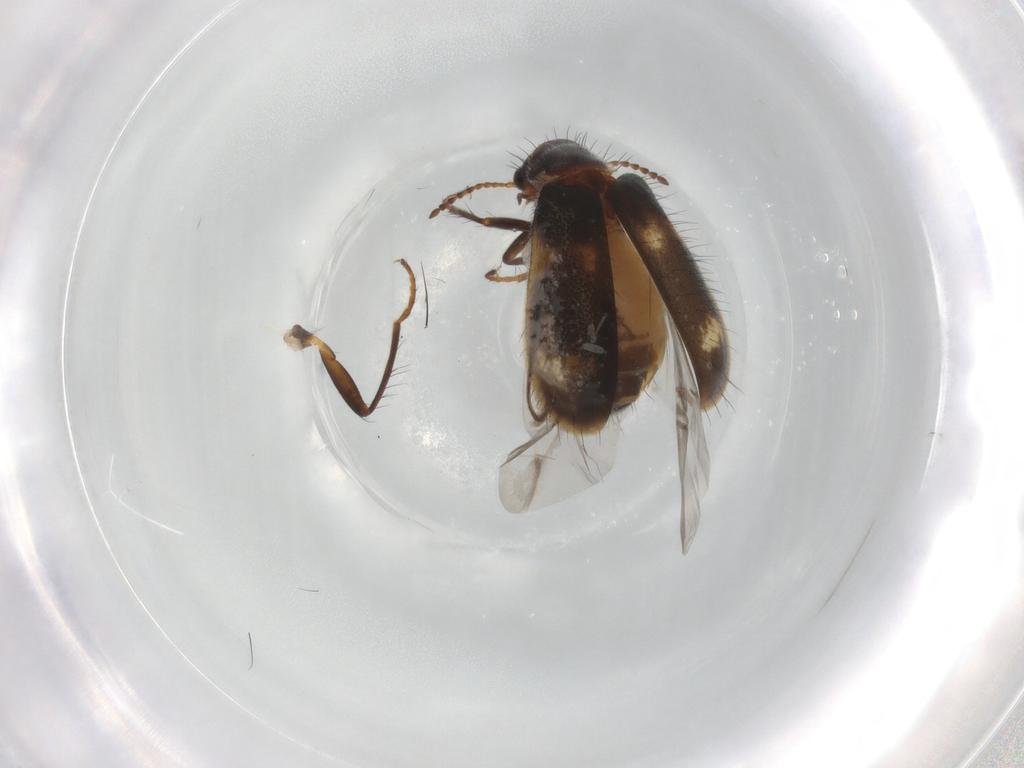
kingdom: Animalia
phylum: Arthropoda
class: Insecta
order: Coleoptera
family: Melyridae
